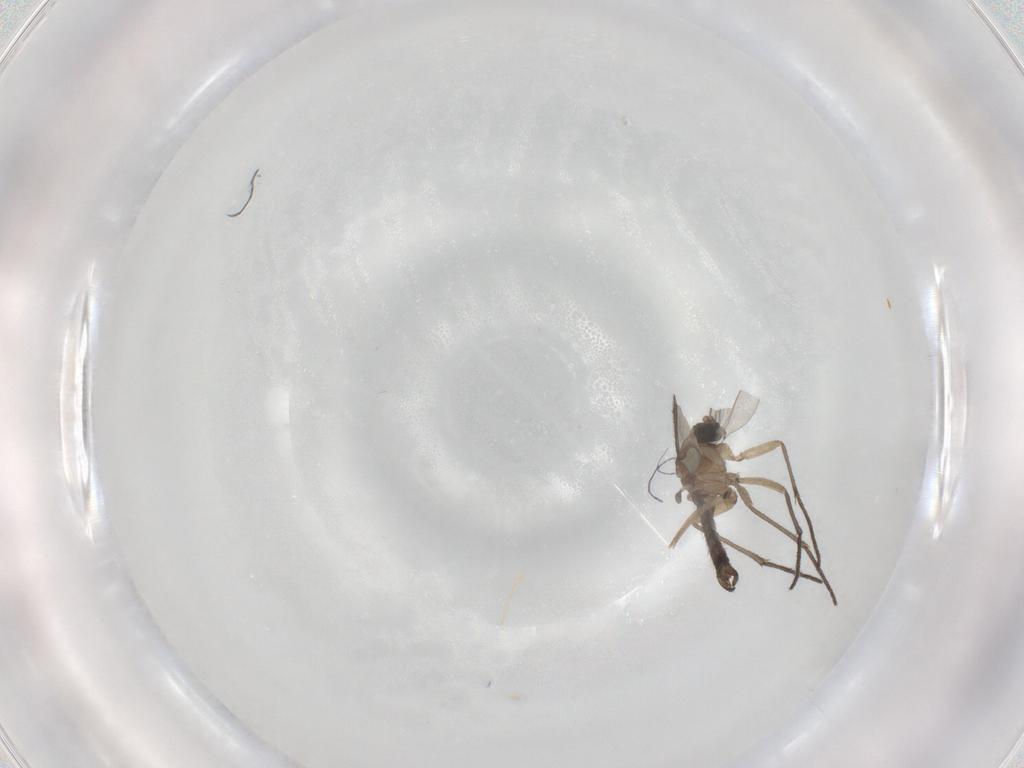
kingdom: Animalia
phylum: Arthropoda
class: Insecta
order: Diptera
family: Sciaridae
